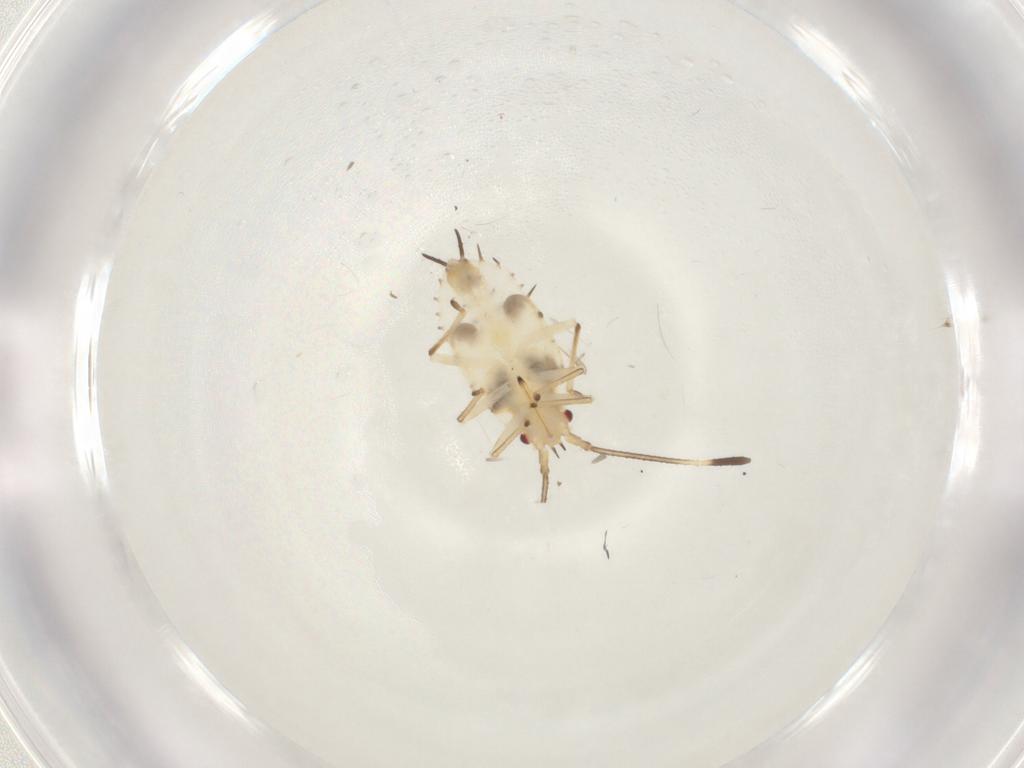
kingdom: Animalia
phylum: Arthropoda
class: Insecta
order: Hemiptera
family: Tingidae
